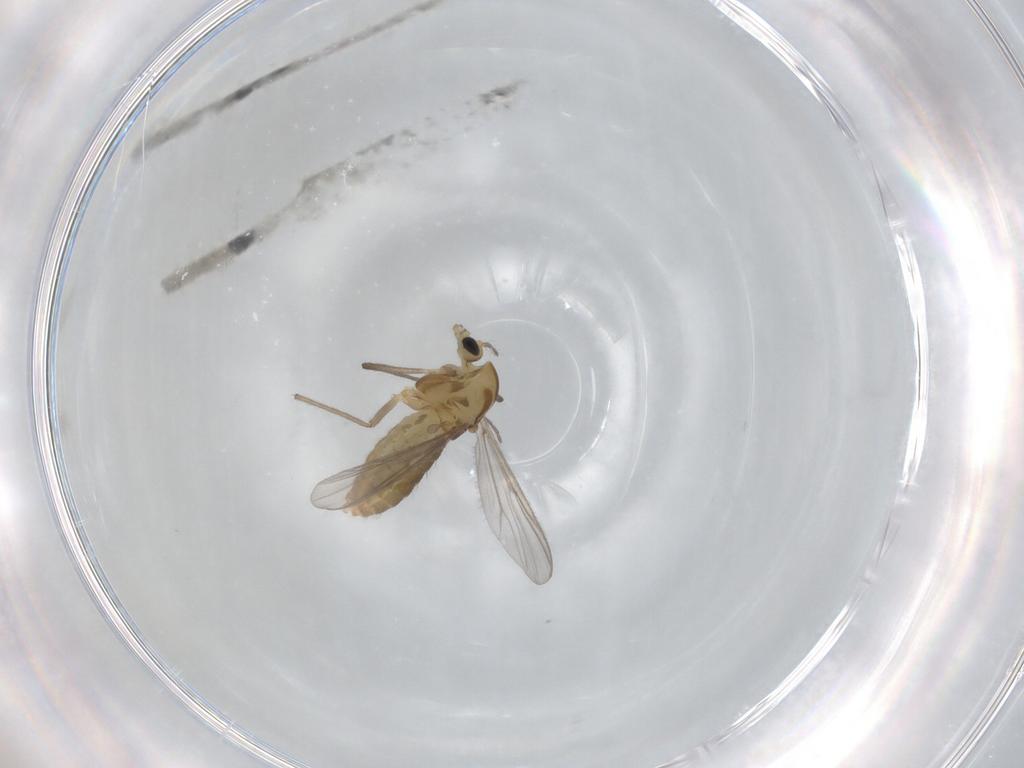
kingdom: Animalia
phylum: Arthropoda
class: Insecta
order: Diptera
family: Chironomidae
